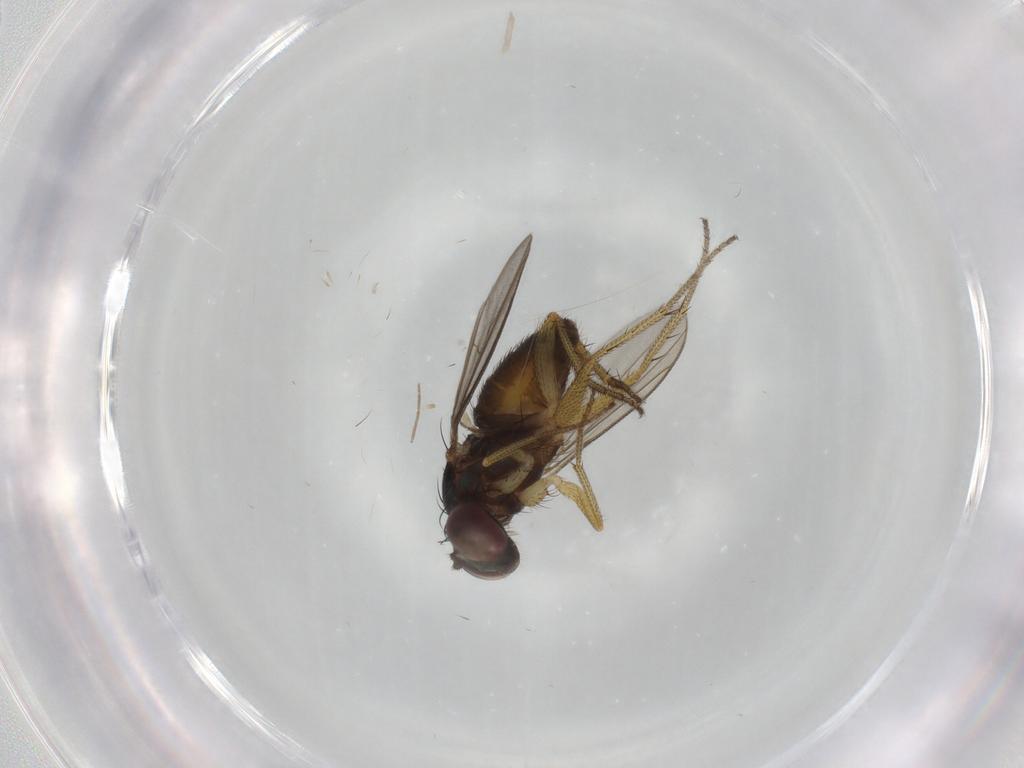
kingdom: Animalia
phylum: Arthropoda
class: Insecta
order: Diptera
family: Dolichopodidae
